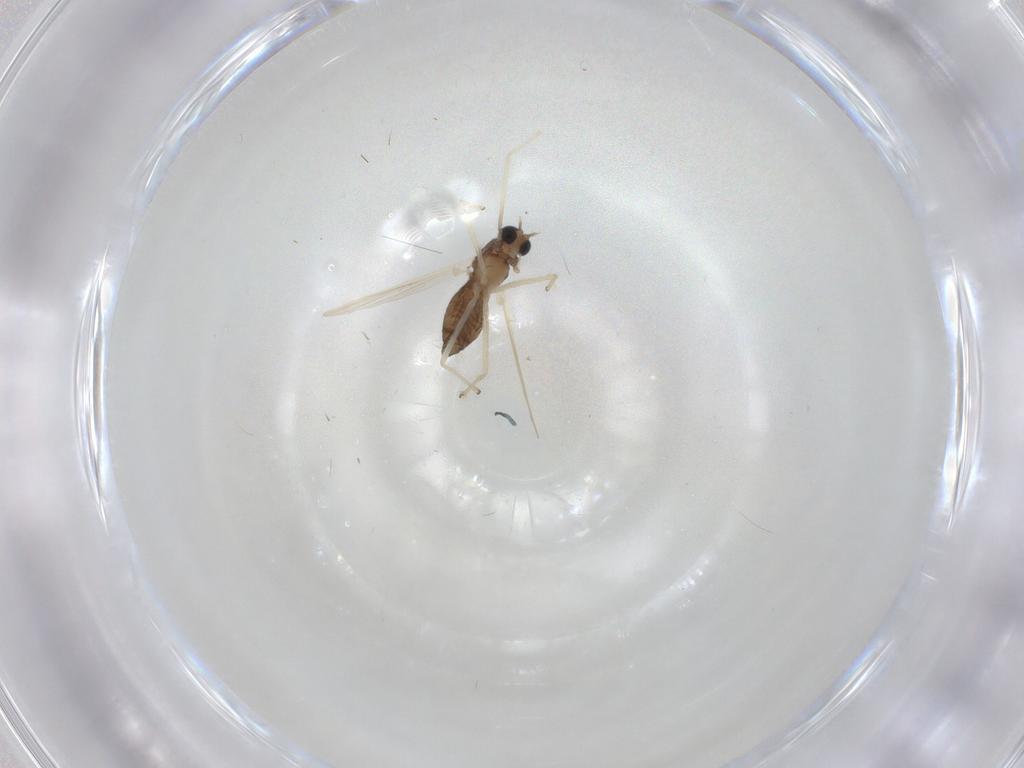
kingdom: Animalia
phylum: Arthropoda
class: Insecta
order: Diptera
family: Chironomidae
